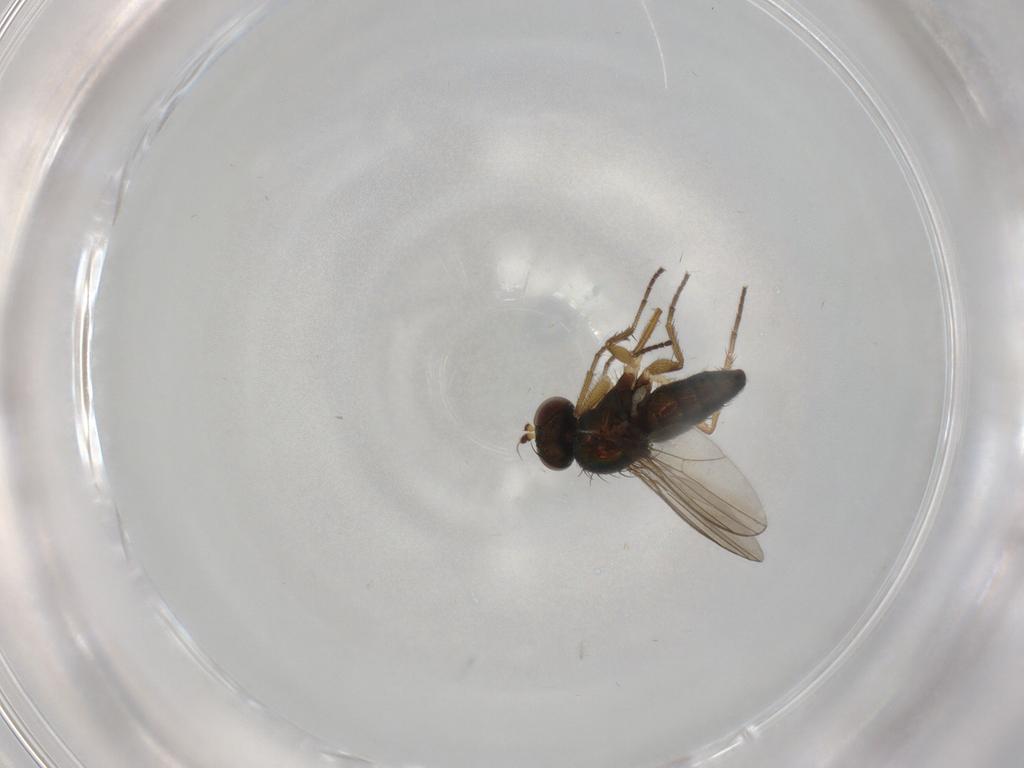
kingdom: Animalia
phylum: Arthropoda
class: Insecta
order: Diptera
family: Dolichopodidae
